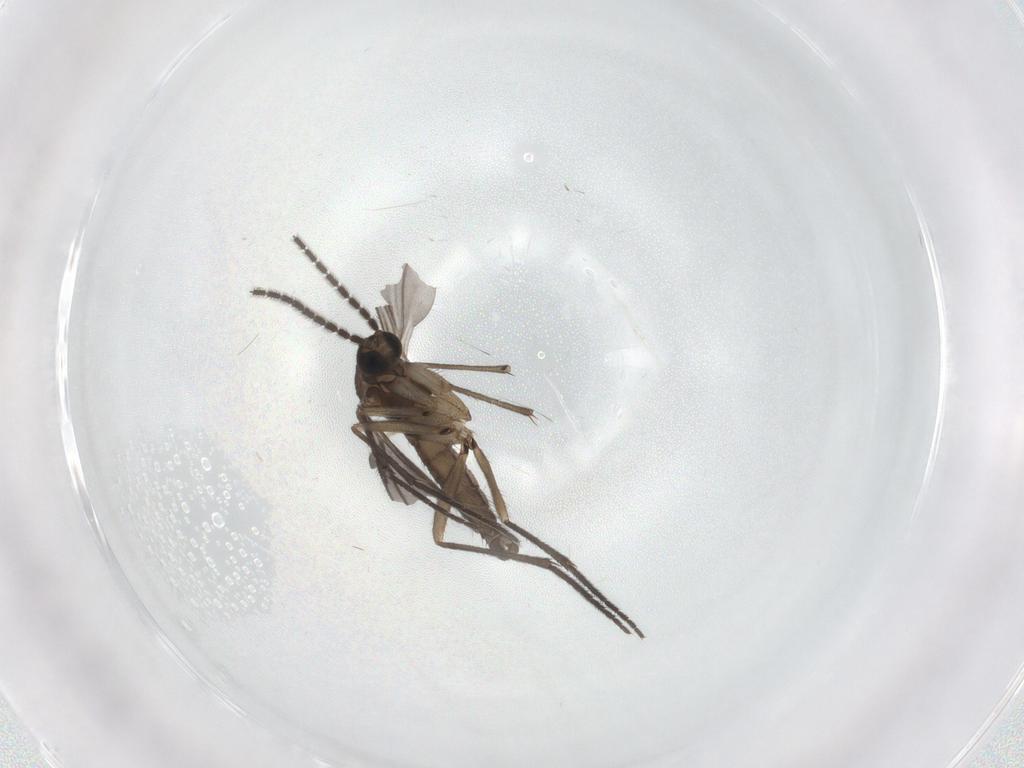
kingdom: Animalia
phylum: Arthropoda
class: Insecta
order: Diptera
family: Sciaridae
